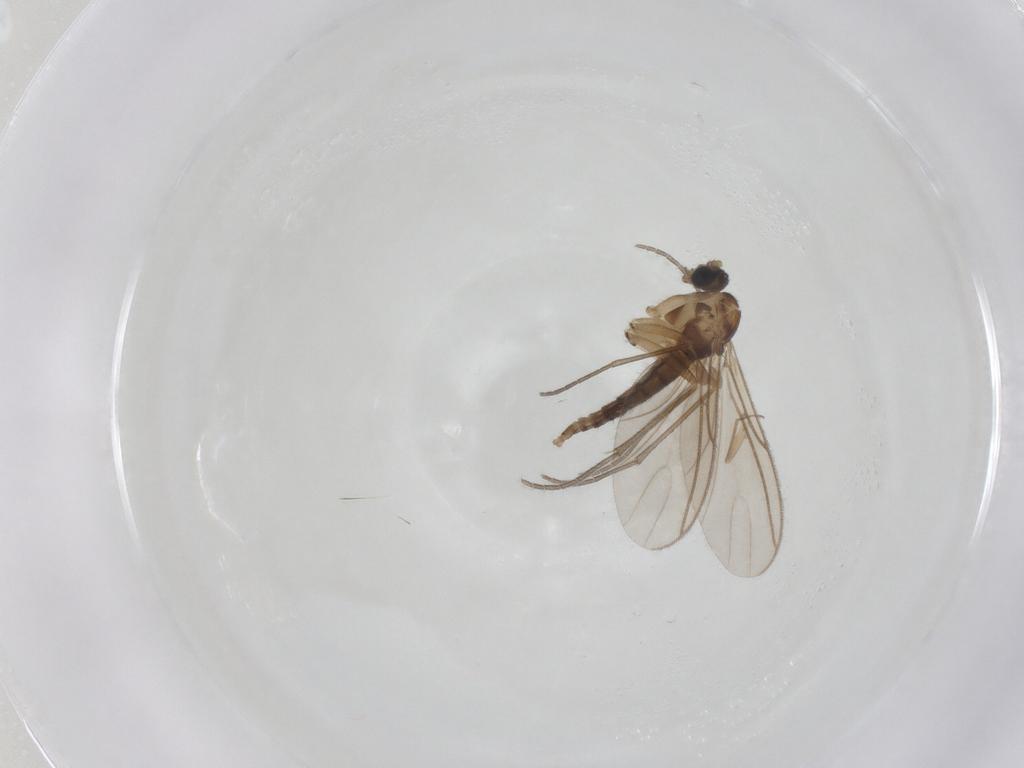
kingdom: Animalia
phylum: Arthropoda
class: Insecta
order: Diptera
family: Sciaridae
